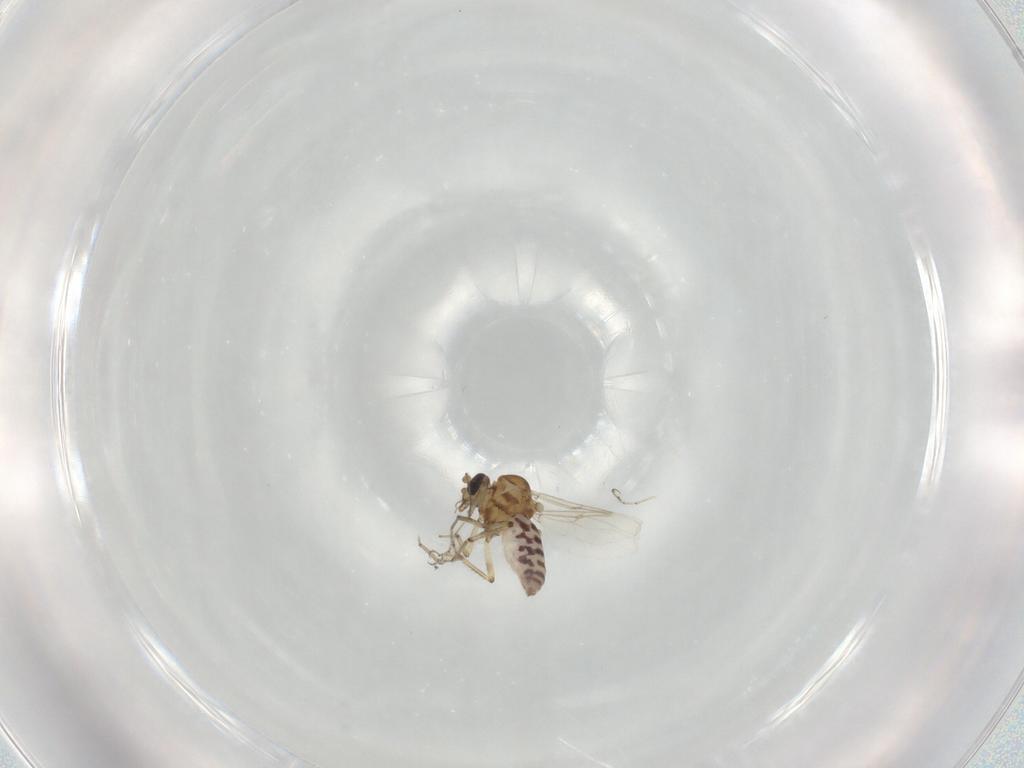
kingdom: Animalia
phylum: Arthropoda
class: Insecta
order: Diptera
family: Ceratopogonidae
